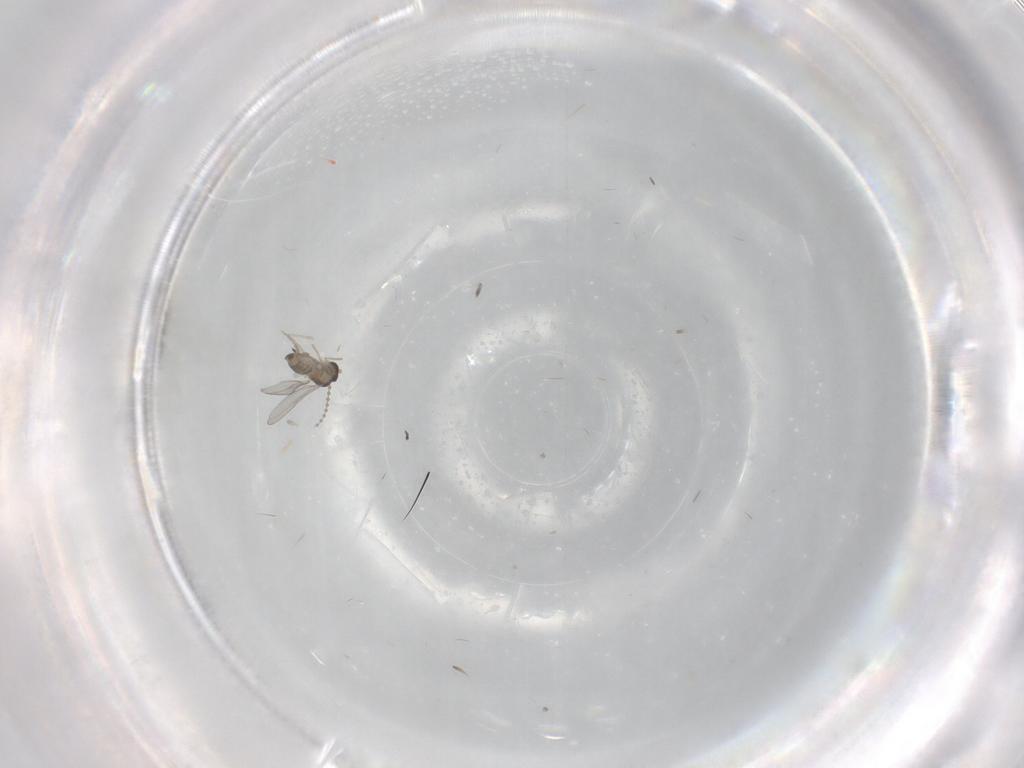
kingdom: Animalia
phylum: Arthropoda
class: Insecta
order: Diptera
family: Cecidomyiidae
